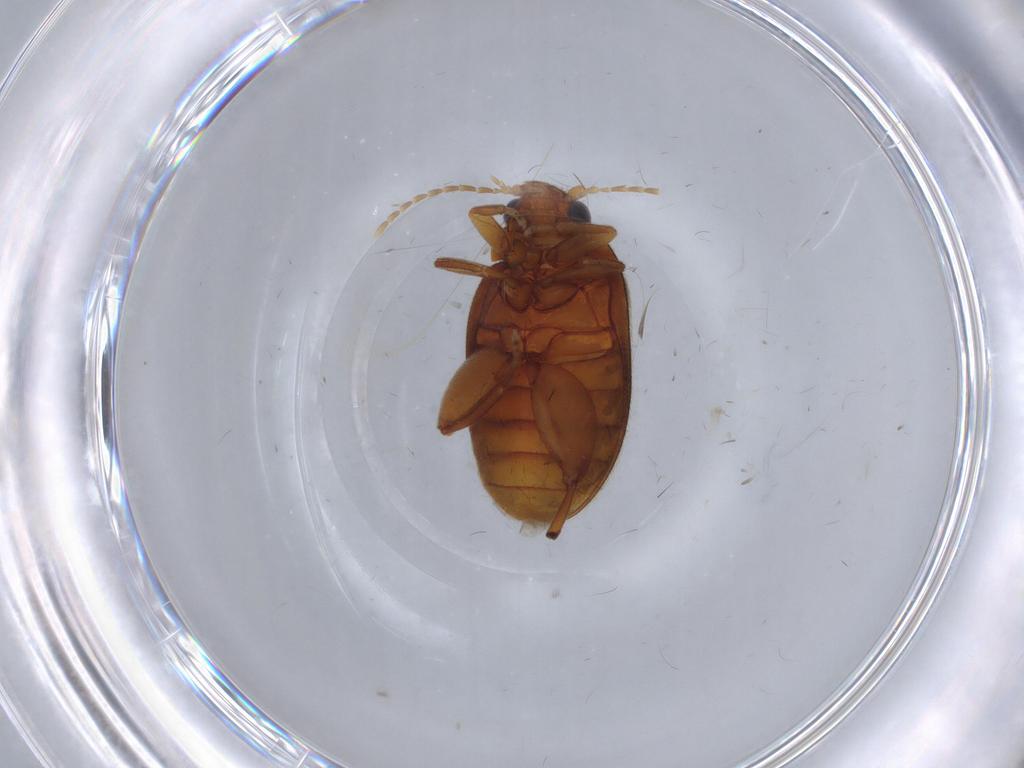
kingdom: Animalia
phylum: Arthropoda
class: Insecta
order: Coleoptera
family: Scirtidae
